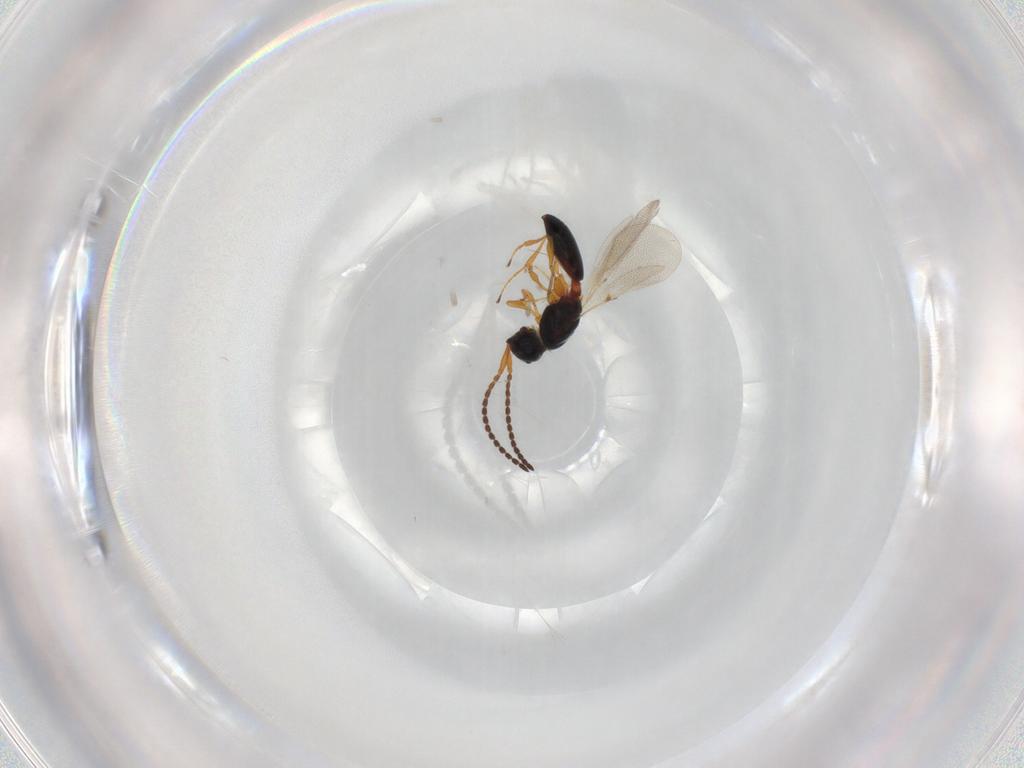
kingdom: Animalia
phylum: Arthropoda
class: Insecta
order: Hymenoptera
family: Diapriidae
